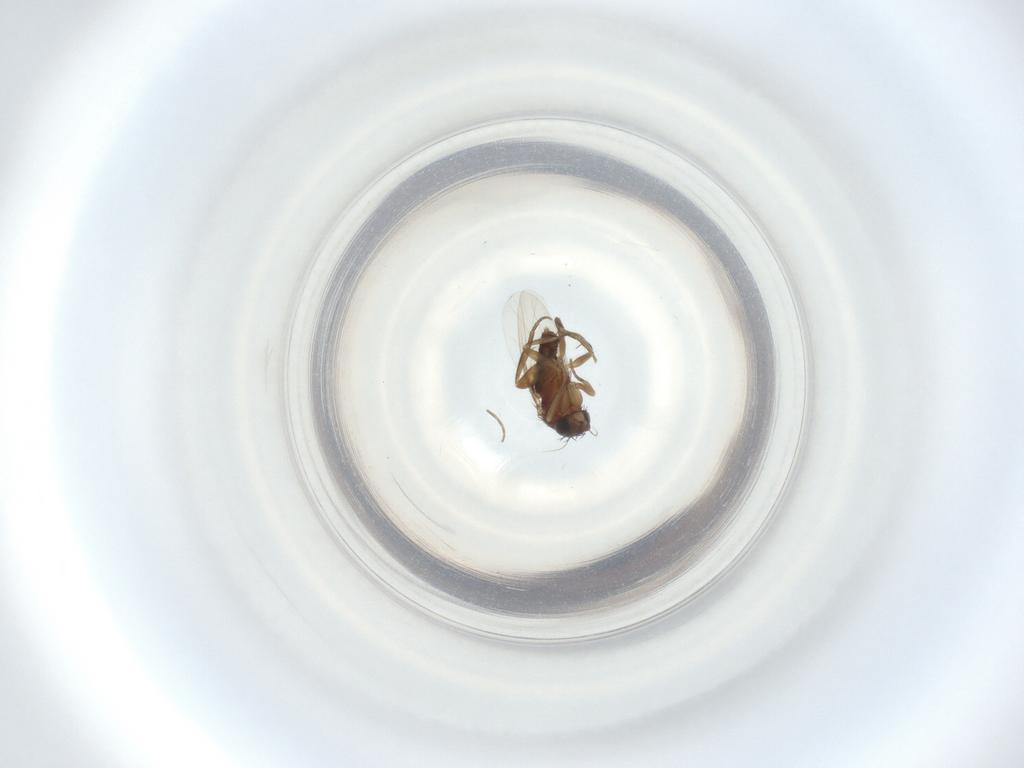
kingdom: Animalia
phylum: Arthropoda
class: Insecta
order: Diptera
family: Phoridae
